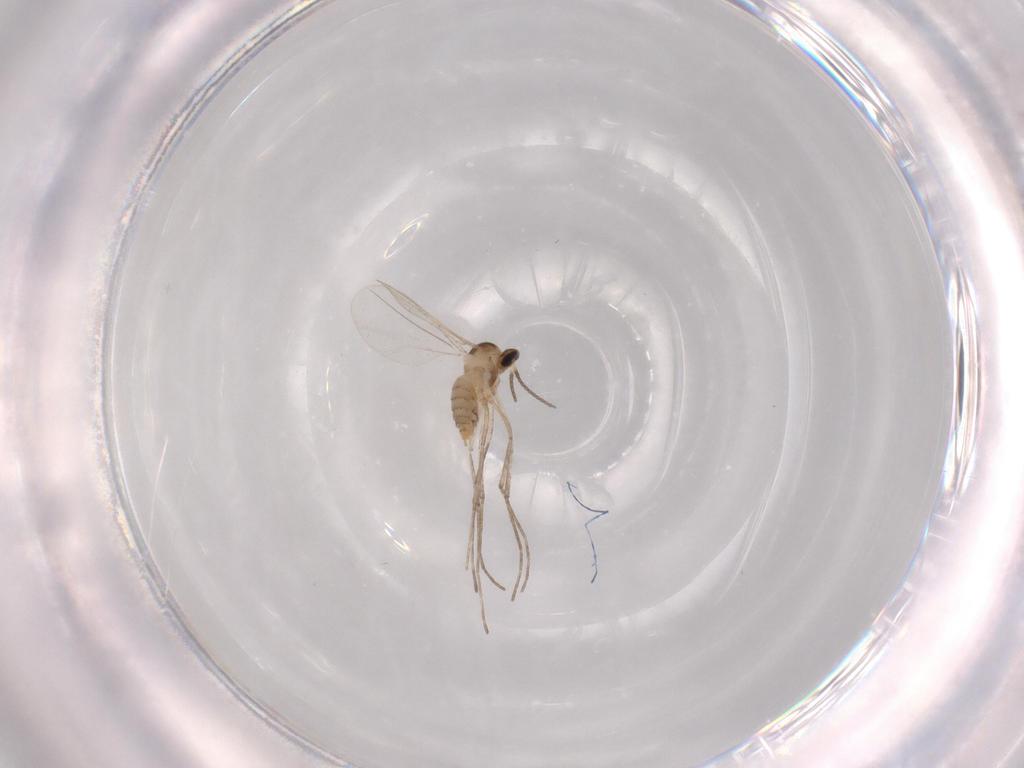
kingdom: Animalia
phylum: Arthropoda
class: Insecta
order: Diptera
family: Cecidomyiidae
